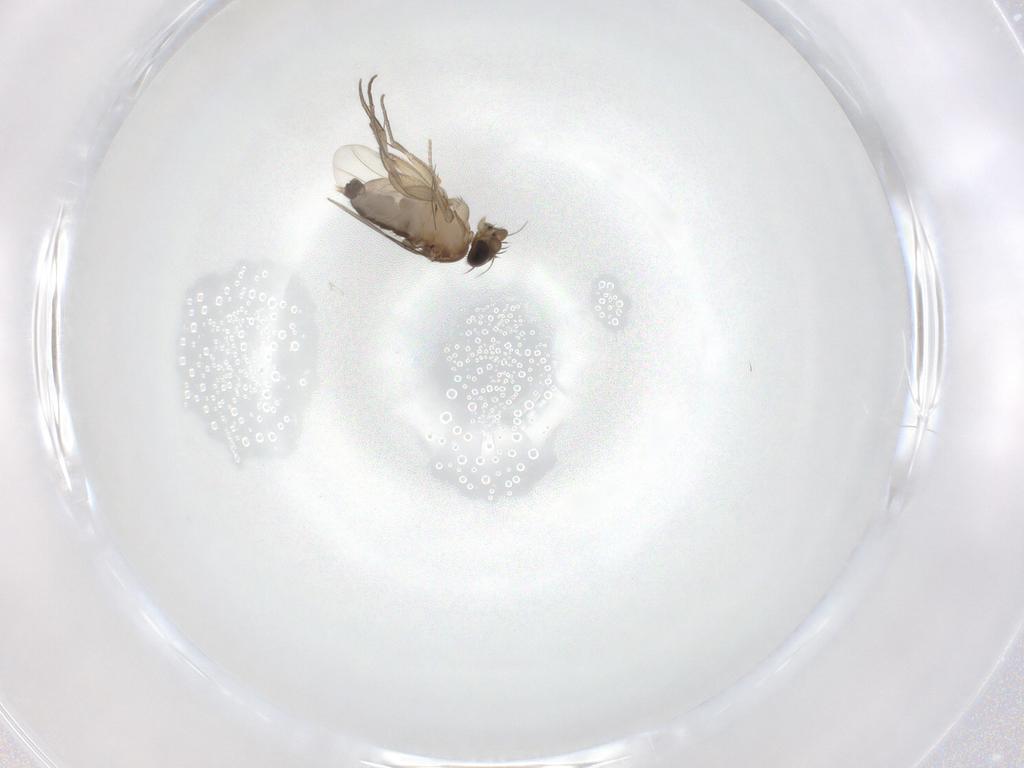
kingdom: Animalia
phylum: Arthropoda
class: Insecta
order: Diptera
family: Phoridae
